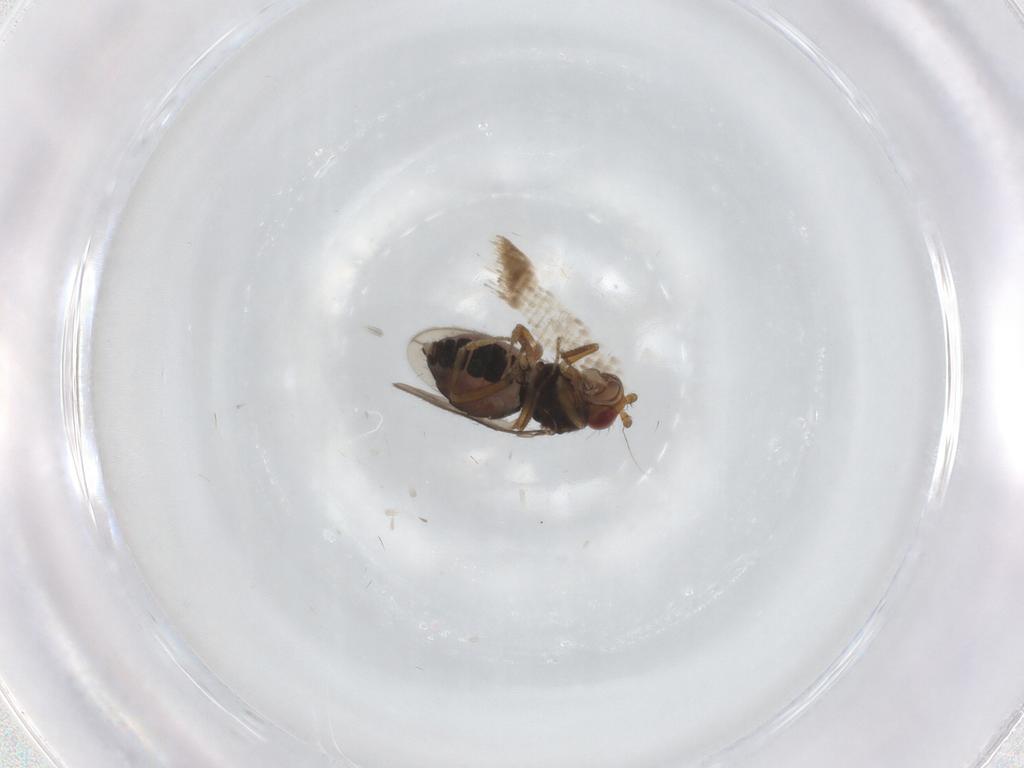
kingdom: Animalia
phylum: Arthropoda
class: Insecta
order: Diptera
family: Sphaeroceridae
